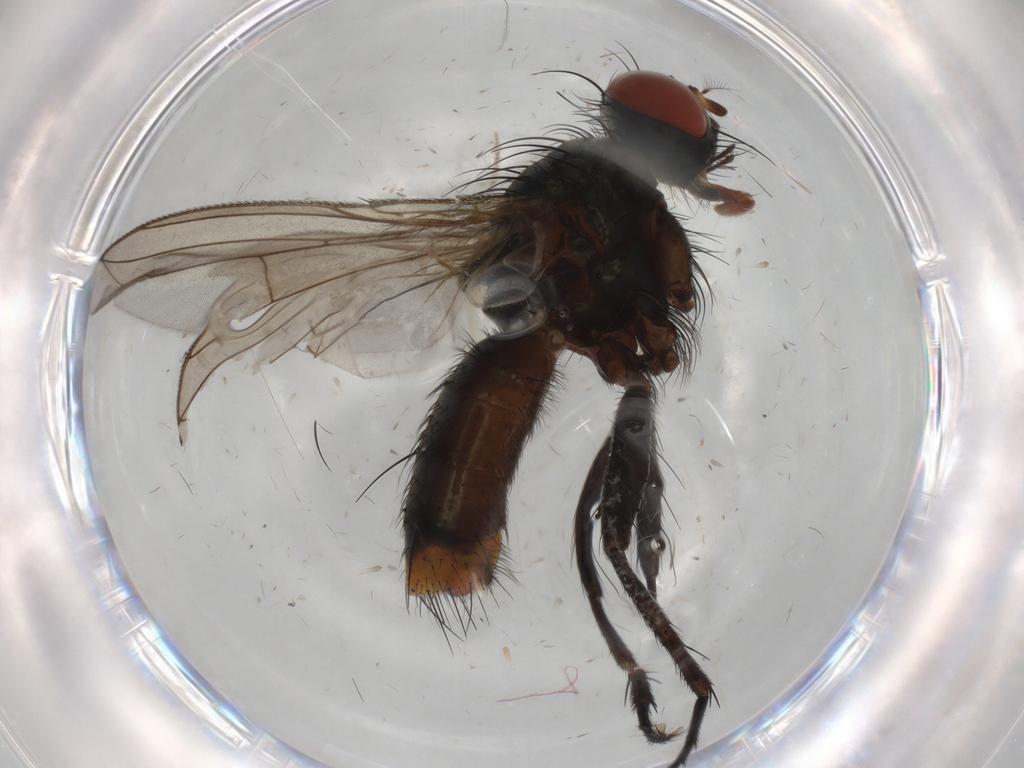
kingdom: Animalia
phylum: Arthropoda
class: Insecta
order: Diptera
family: Sarcophagidae
